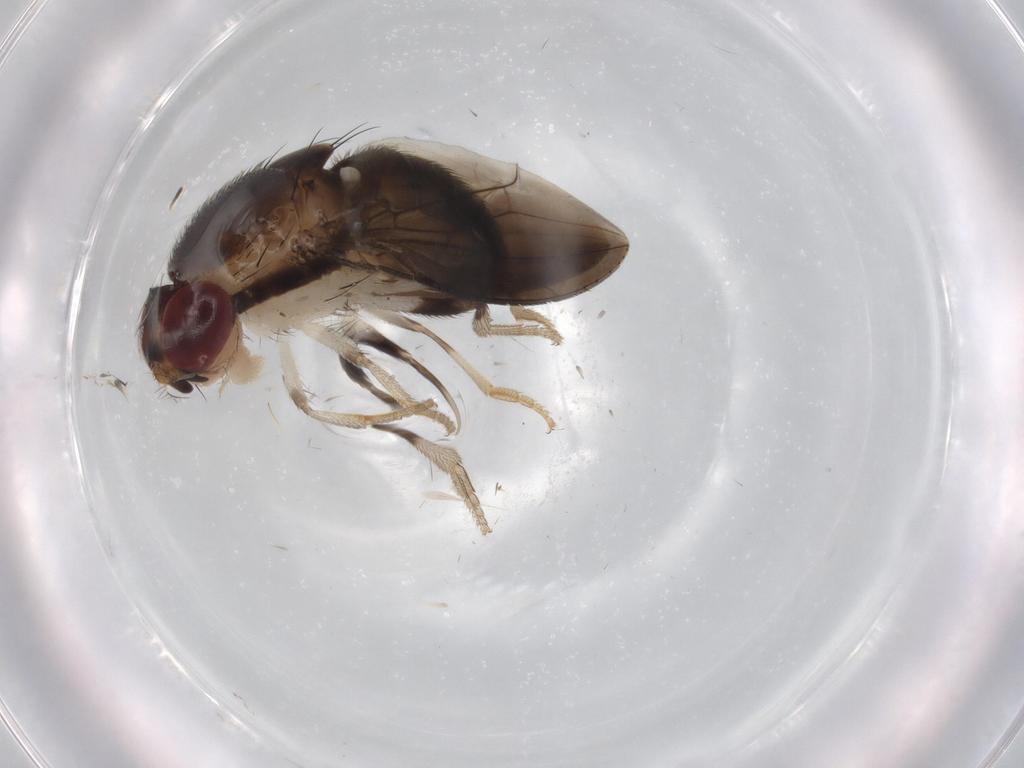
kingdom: Animalia
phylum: Arthropoda
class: Insecta
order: Diptera
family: Drosophilidae
